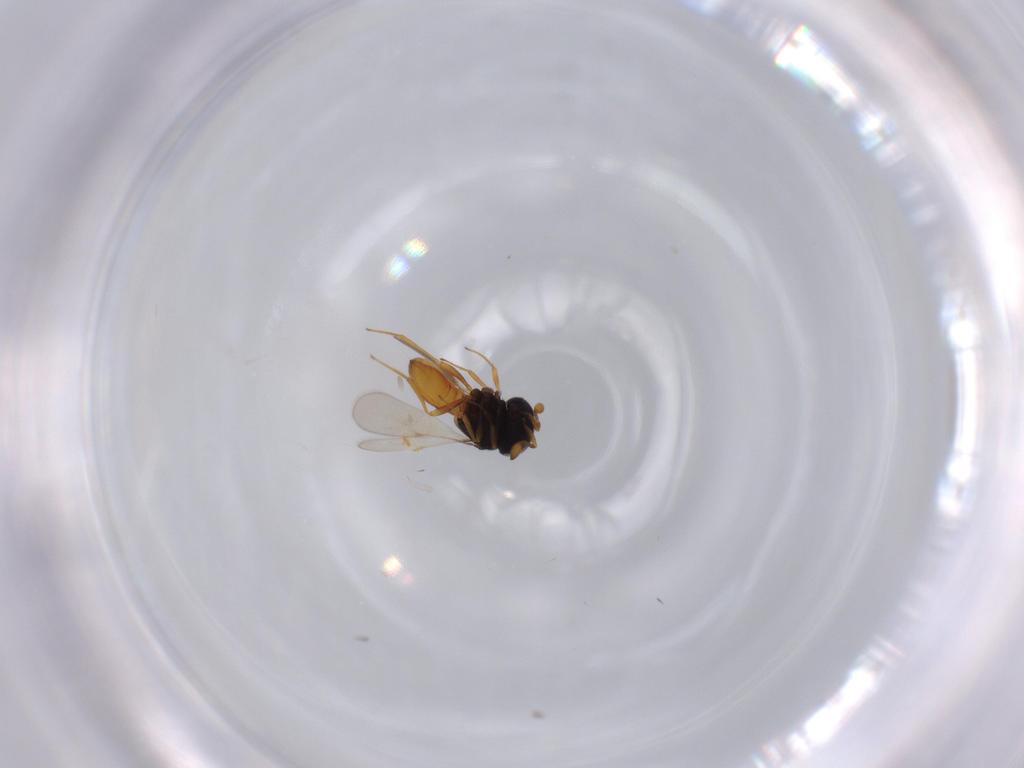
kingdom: Animalia
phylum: Arthropoda
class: Insecta
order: Hymenoptera
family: Scelionidae
